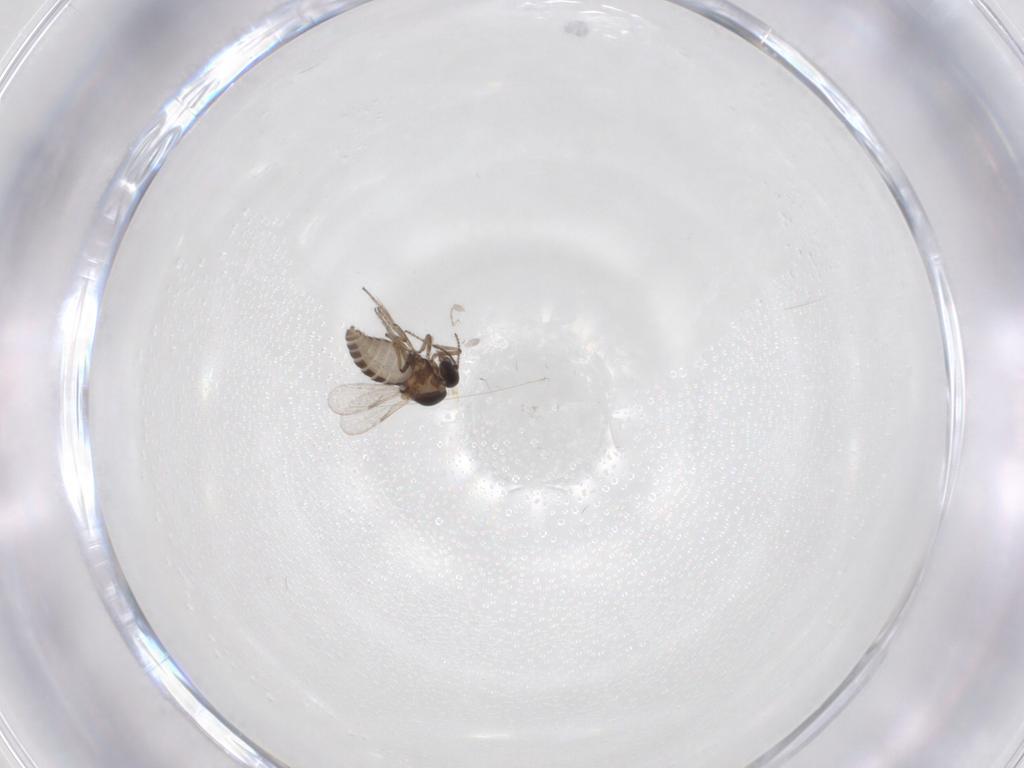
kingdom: Animalia
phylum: Arthropoda
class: Insecta
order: Diptera
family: Ceratopogonidae
